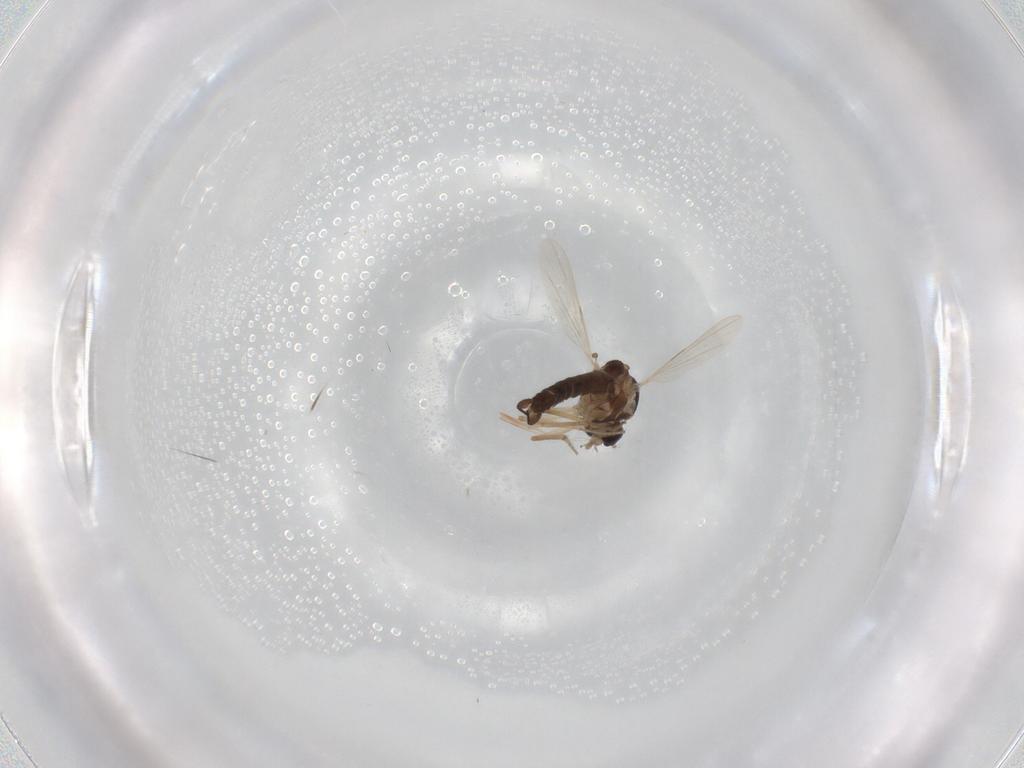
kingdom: Animalia
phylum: Arthropoda
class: Insecta
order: Diptera
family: Ceratopogonidae
